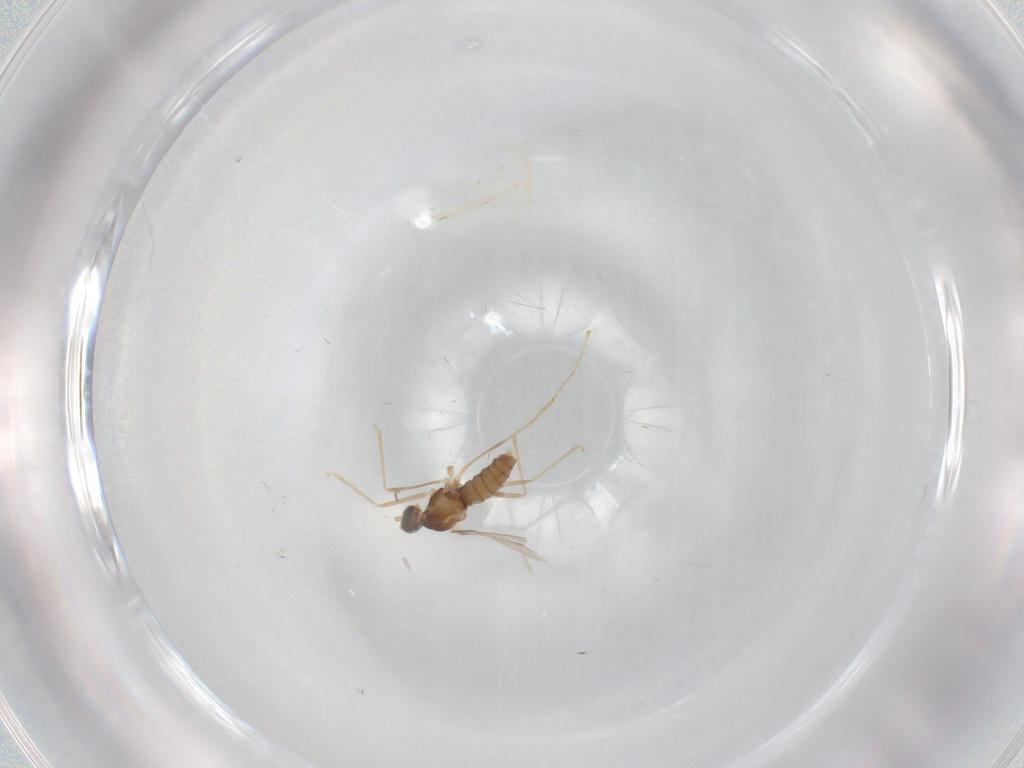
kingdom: Animalia
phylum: Arthropoda
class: Insecta
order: Diptera
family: Cecidomyiidae
